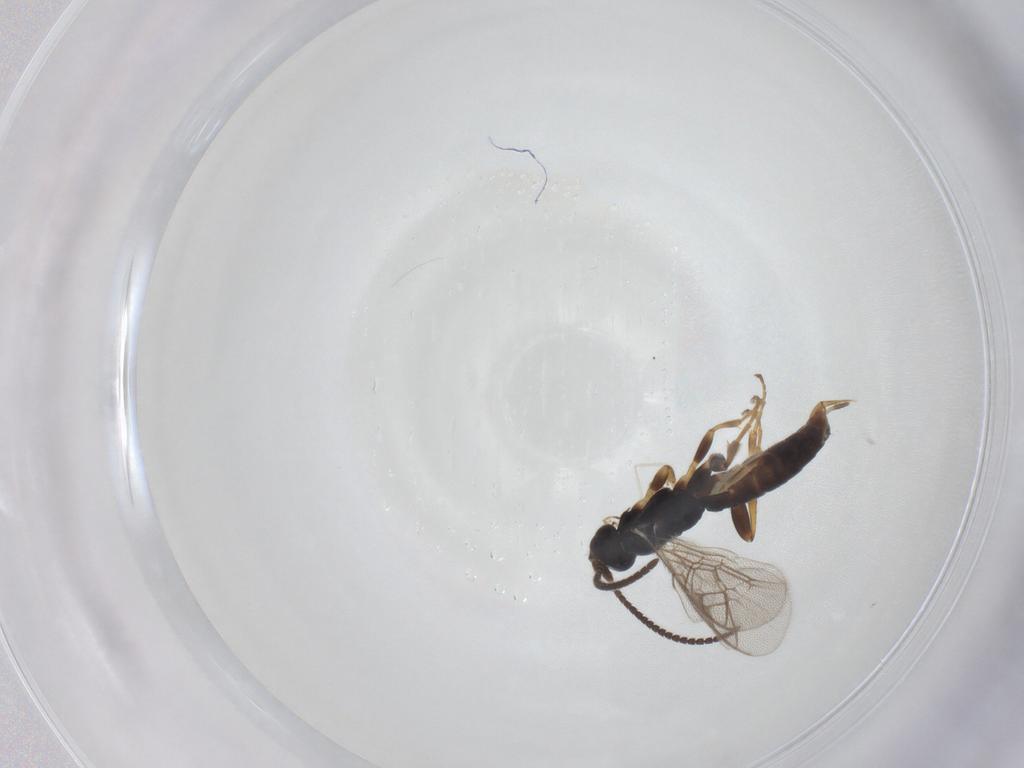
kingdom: Animalia
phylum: Arthropoda
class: Insecta
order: Hymenoptera
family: Ichneumonidae
